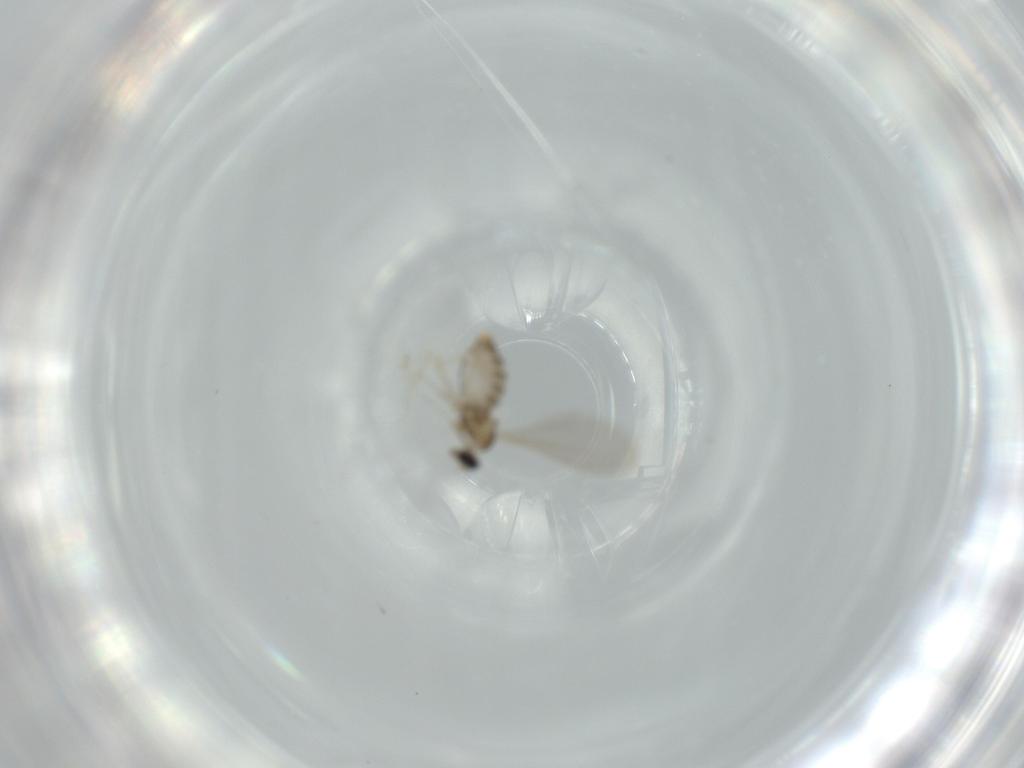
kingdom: Animalia
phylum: Arthropoda
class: Insecta
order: Diptera
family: Cecidomyiidae
